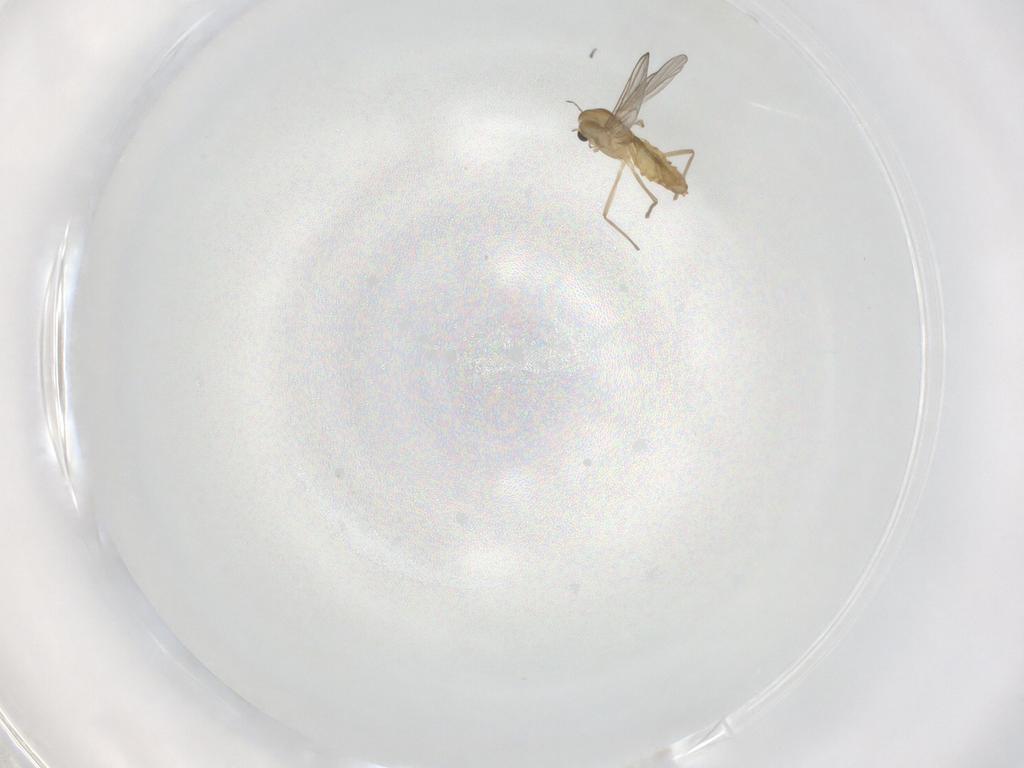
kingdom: Animalia
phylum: Arthropoda
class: Insecta
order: Diptera
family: Chironomidae
